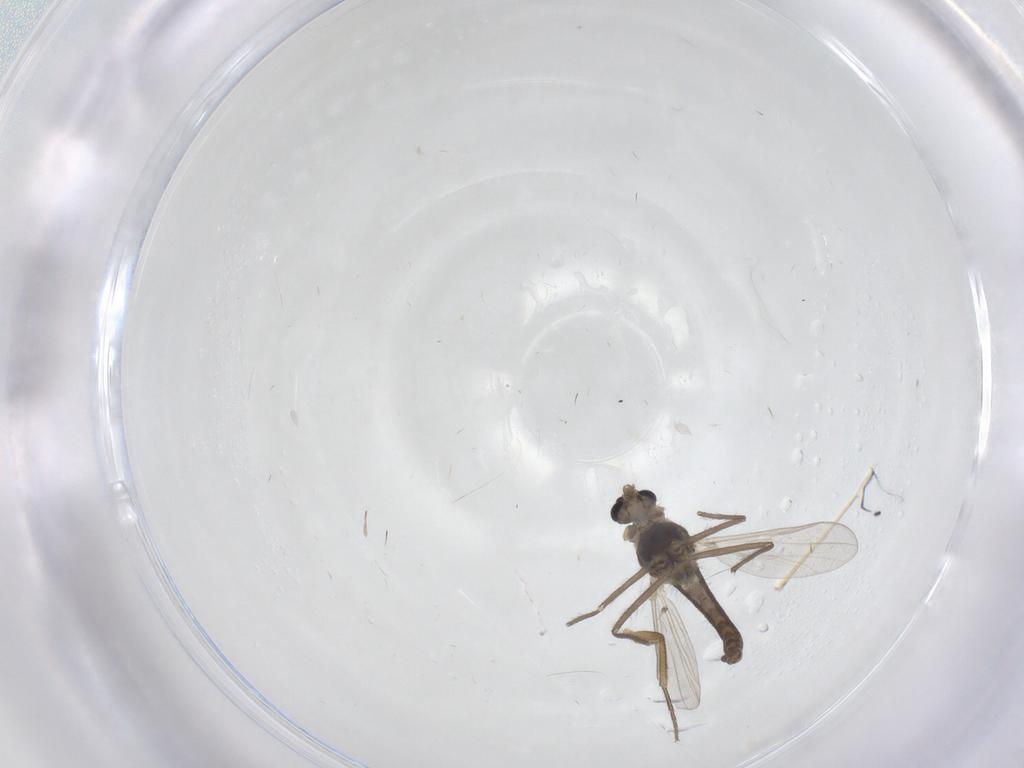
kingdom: Animalia
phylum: Arthropoda
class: Insecta
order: Diptera
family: Chironomidae
